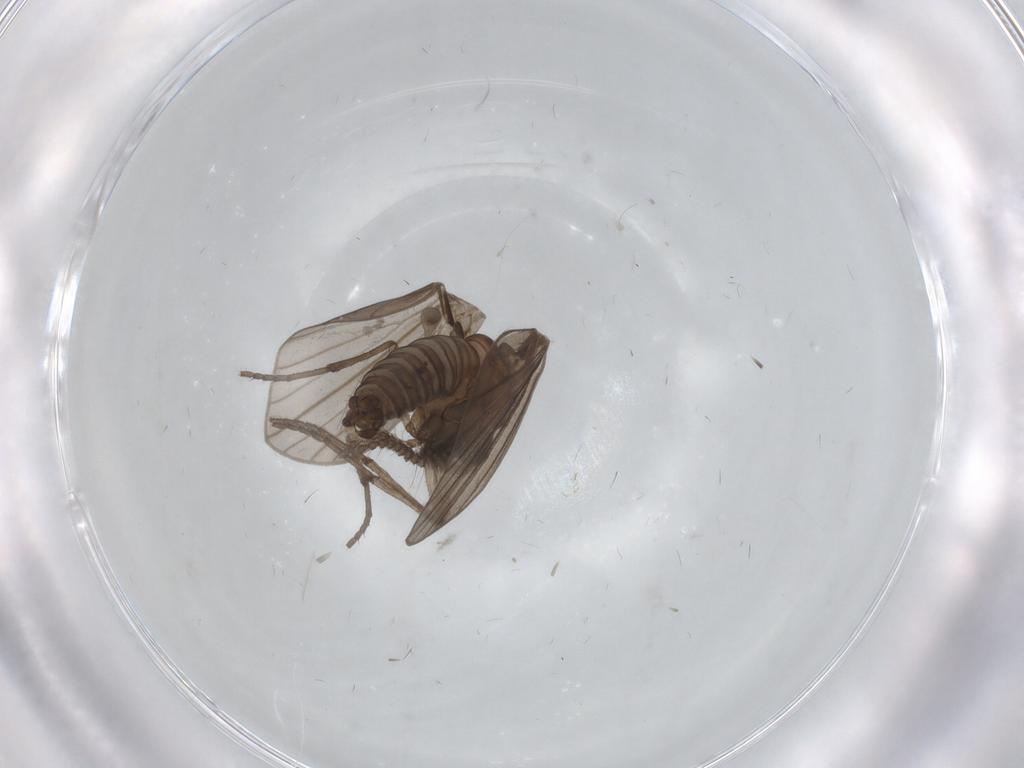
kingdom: Animalia
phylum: Arthropoda
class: Insecta
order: Diptera
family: Psychodidae
